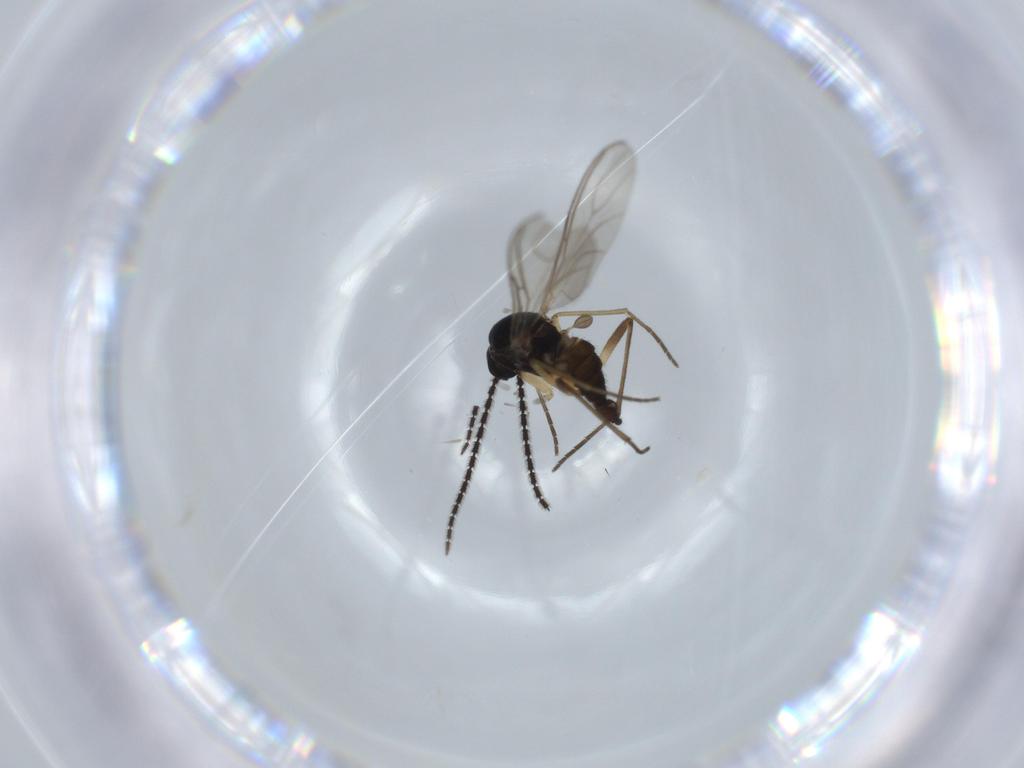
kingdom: Animalia
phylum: Arthropoda
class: Insecta
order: Diptera
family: Sciaridae
